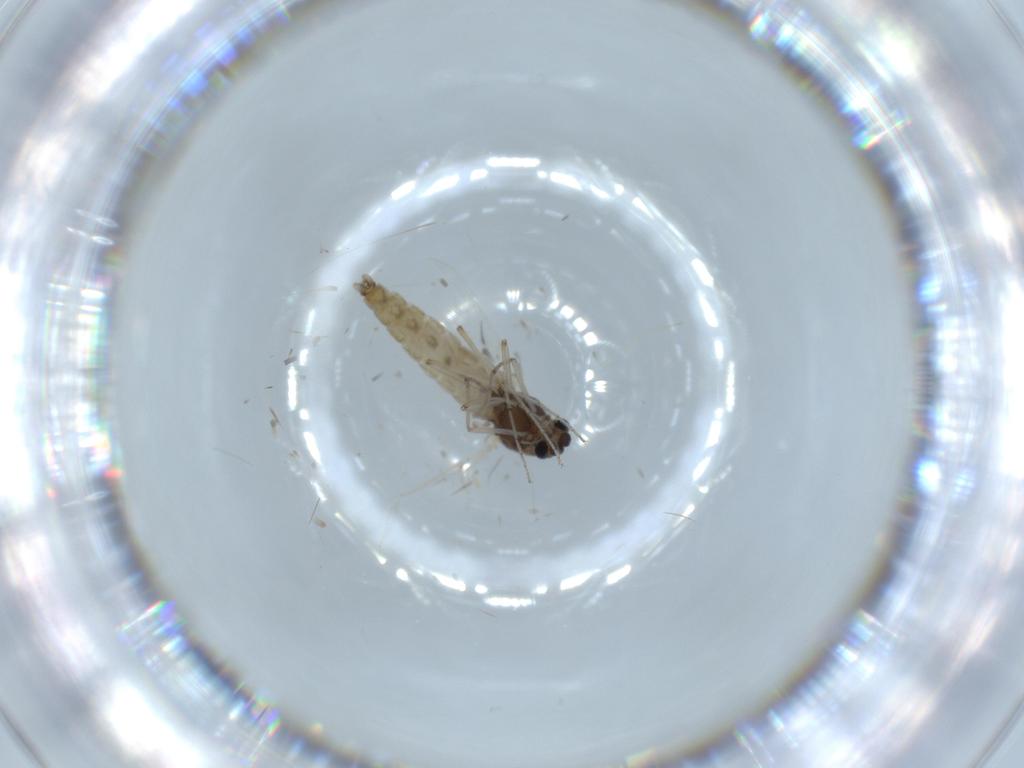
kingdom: Animalia
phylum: Arthropoda
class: Insecta
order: Diptera
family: Chironomidae
